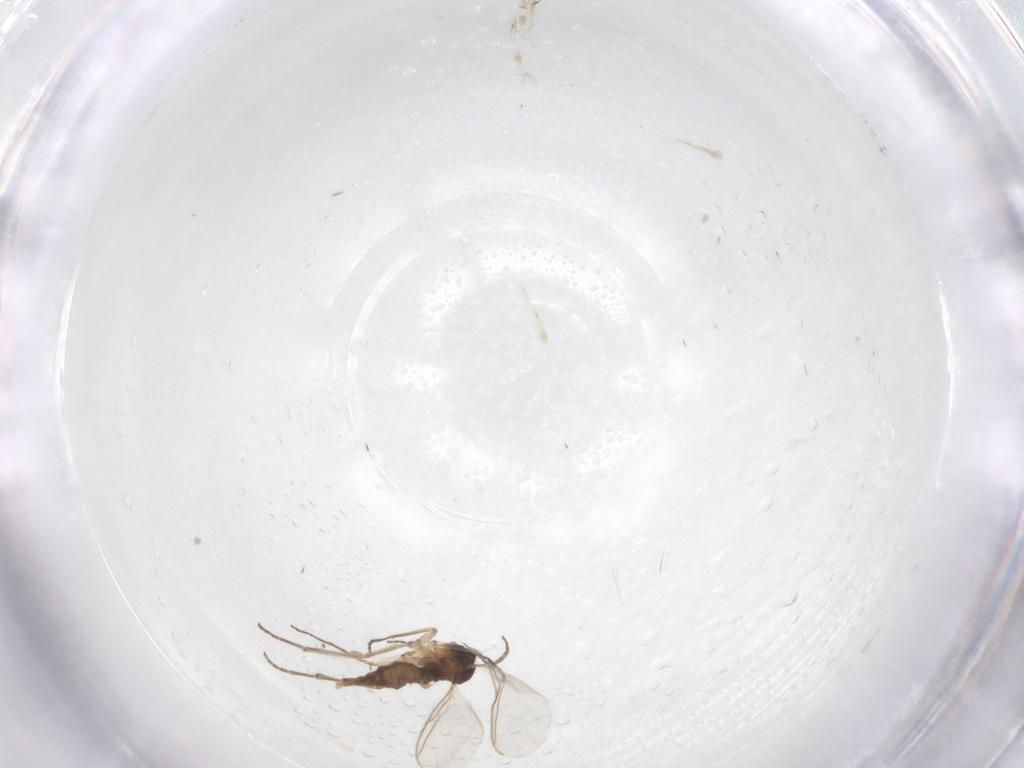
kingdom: Animalia
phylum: Arthropoda
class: Insecta
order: Diptera
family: Sciaridae
